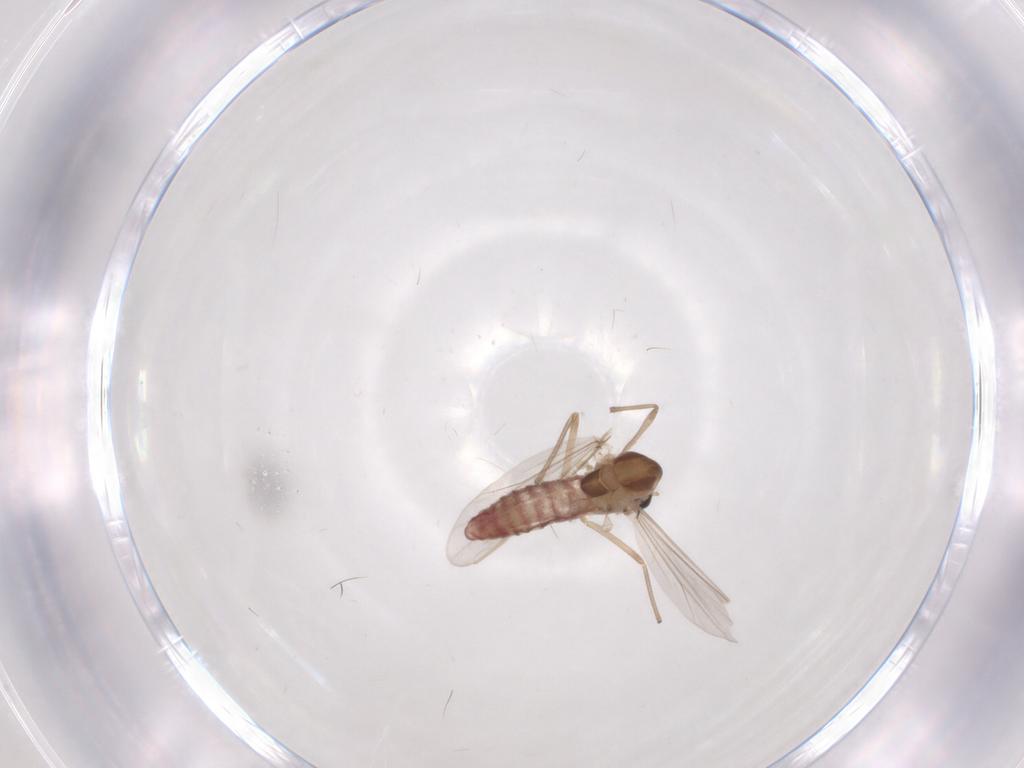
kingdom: Animalia
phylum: Arthropoda
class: Insecta
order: Diptera
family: Chironomidae
